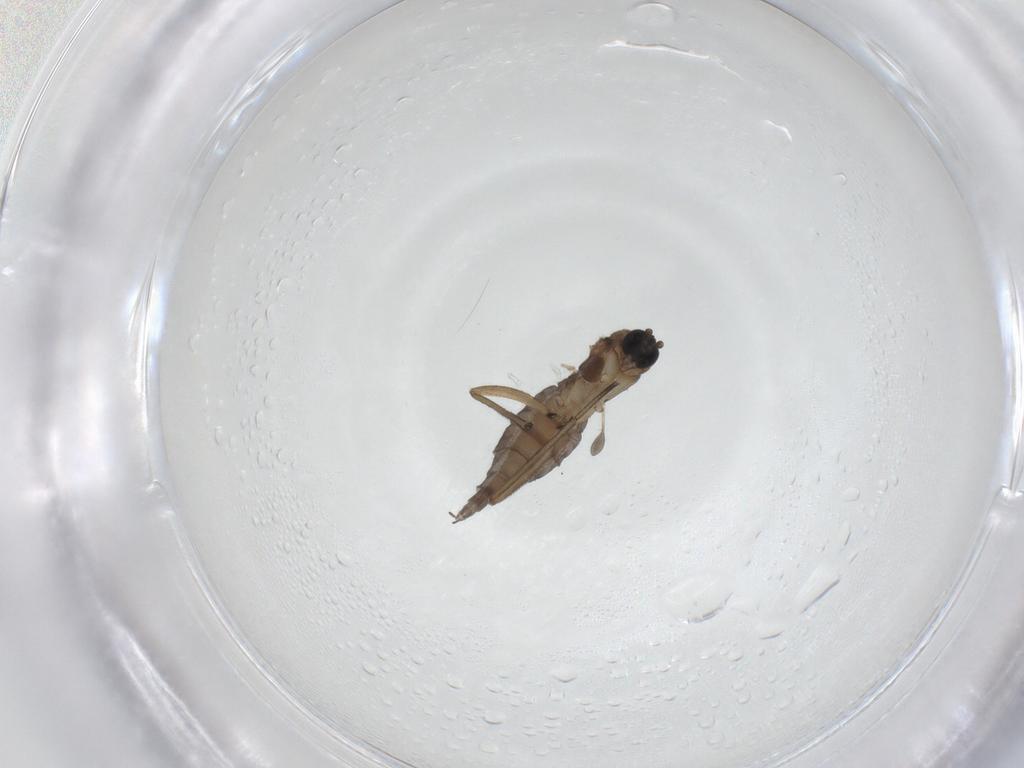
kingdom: Animalia
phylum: Arthropoda
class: Insecta
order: Diptera
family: Sciaridae
